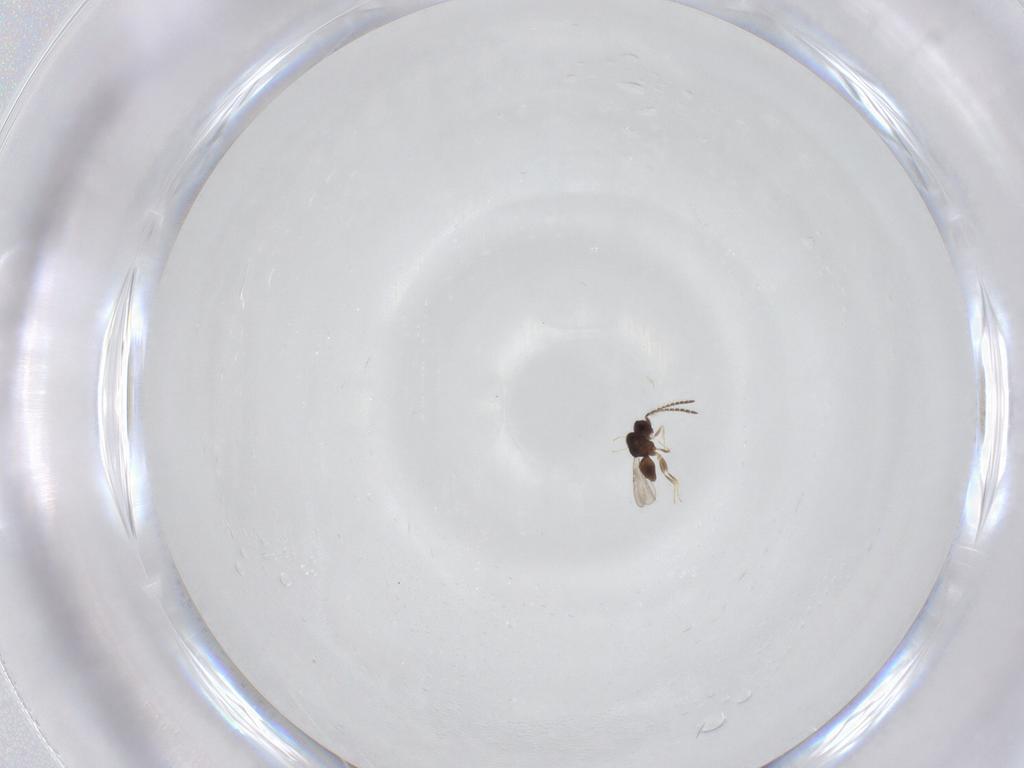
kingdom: Animalia
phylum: Arthropoda
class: Insecta
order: Hymenoptera
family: Ceraphronidae
